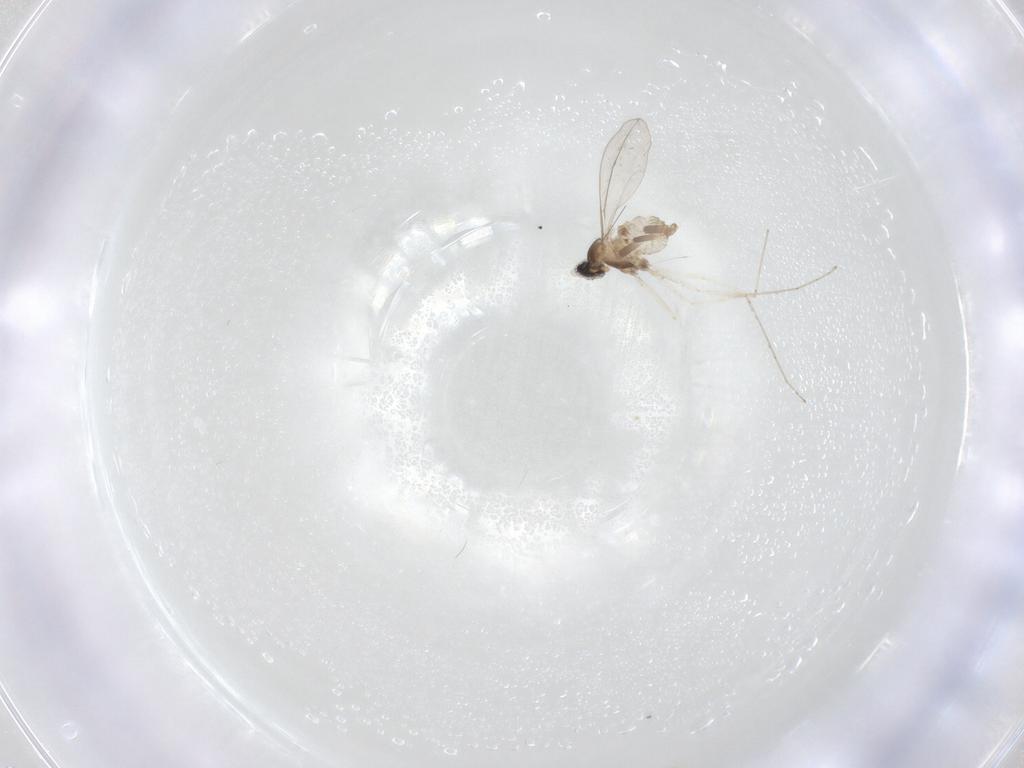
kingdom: Animalia
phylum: Arthropoda
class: Insecta
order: Diptera
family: Cecidomyiidae
